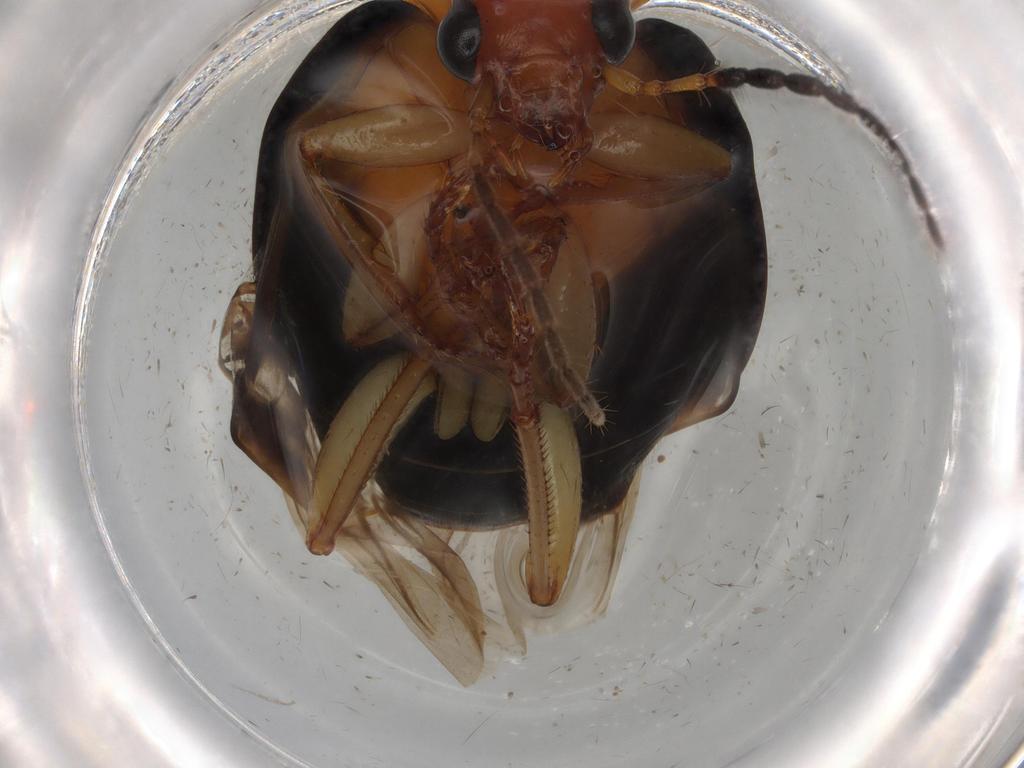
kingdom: Animalia
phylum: Arthropoda
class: Insecta
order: Coleoptera
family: Carabidae
